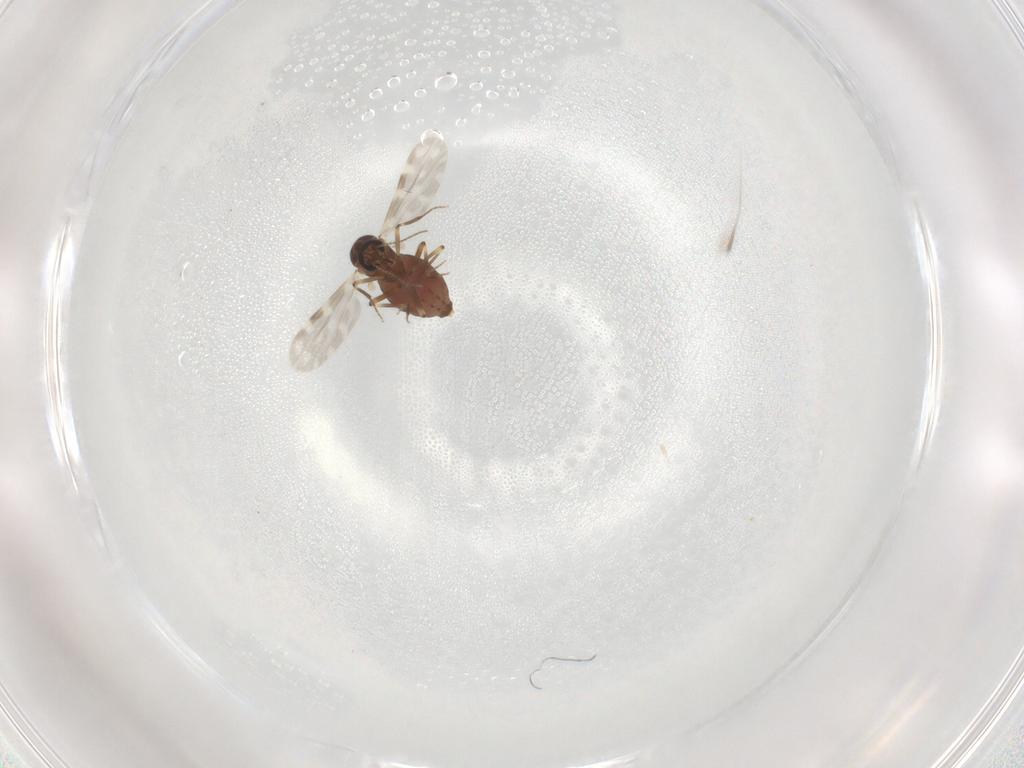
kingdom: Animalia
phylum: Arthropoda
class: Insecta
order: Diptera
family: Ceratopogonidae
